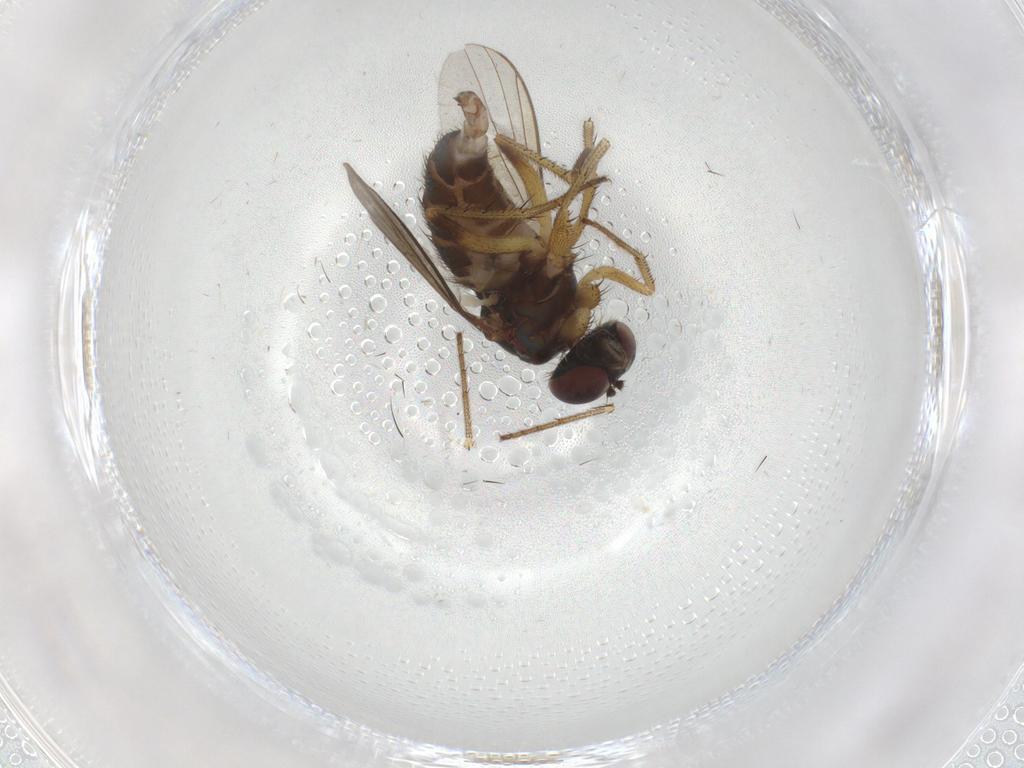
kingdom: Animalia
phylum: Arthropoda
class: Insecta
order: Diptera
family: Dolichopodidae
